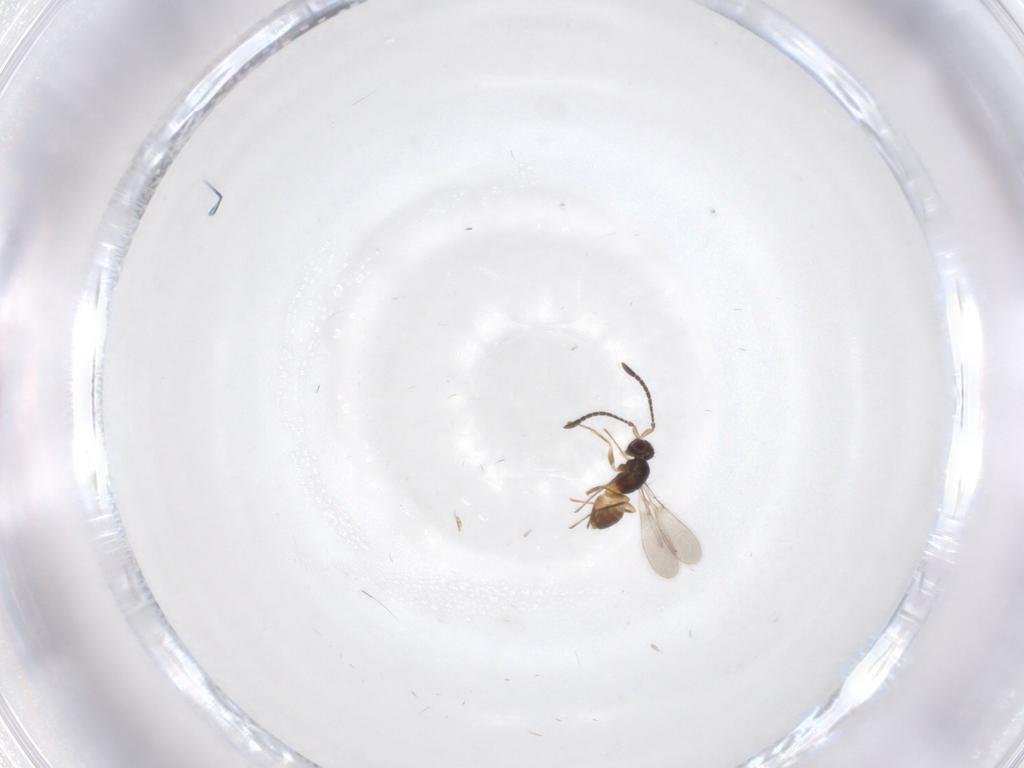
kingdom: Animalia
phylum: Arthropoda
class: Insecta
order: Hymenoptera
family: Mymaridae
